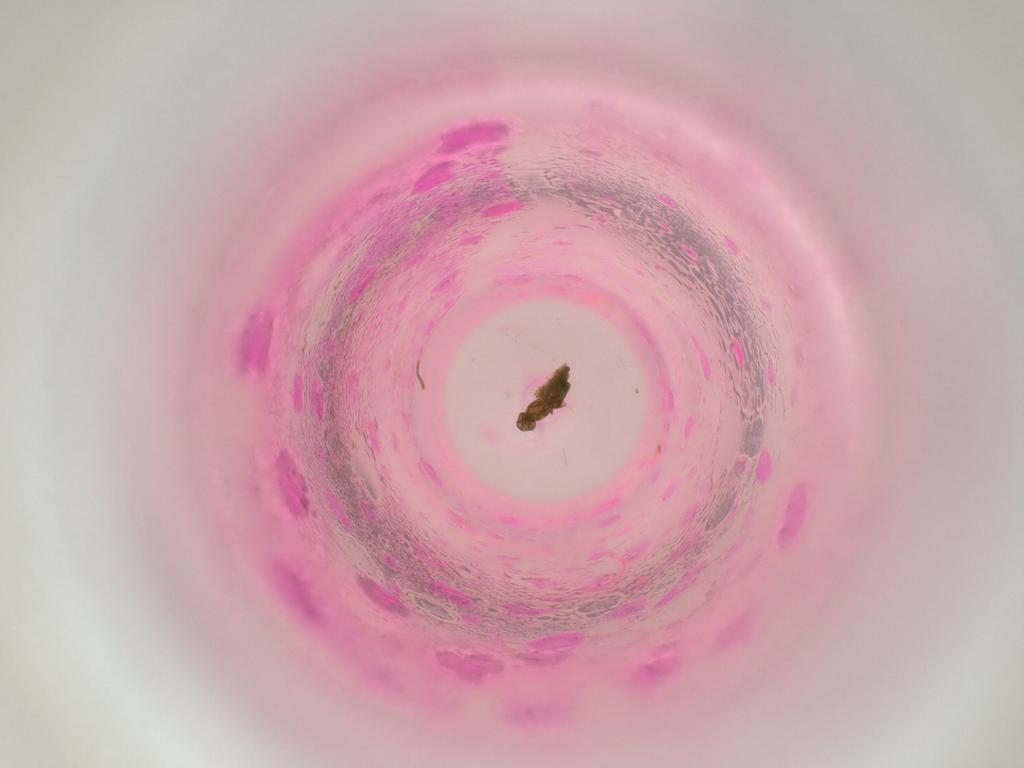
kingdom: Animalia
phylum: Arthropoda
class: Insecta
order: Diptera
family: Cecidomyiidae
